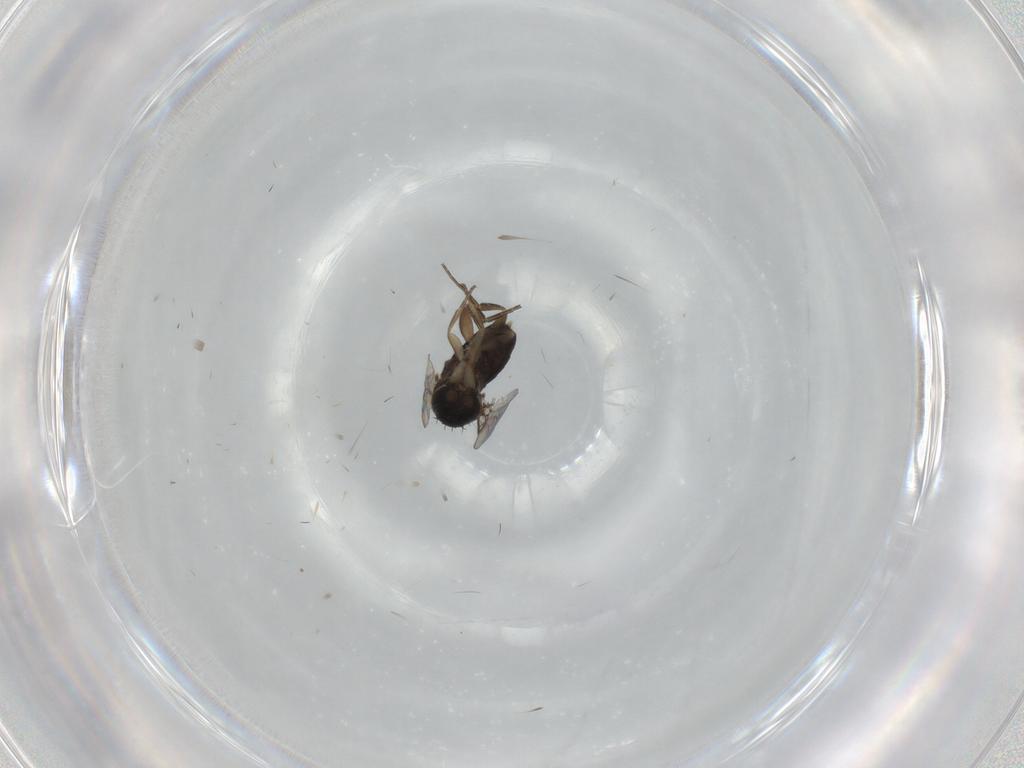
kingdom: Animalia
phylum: Arthropoda
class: Insecta
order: Diptera
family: Phoridae
